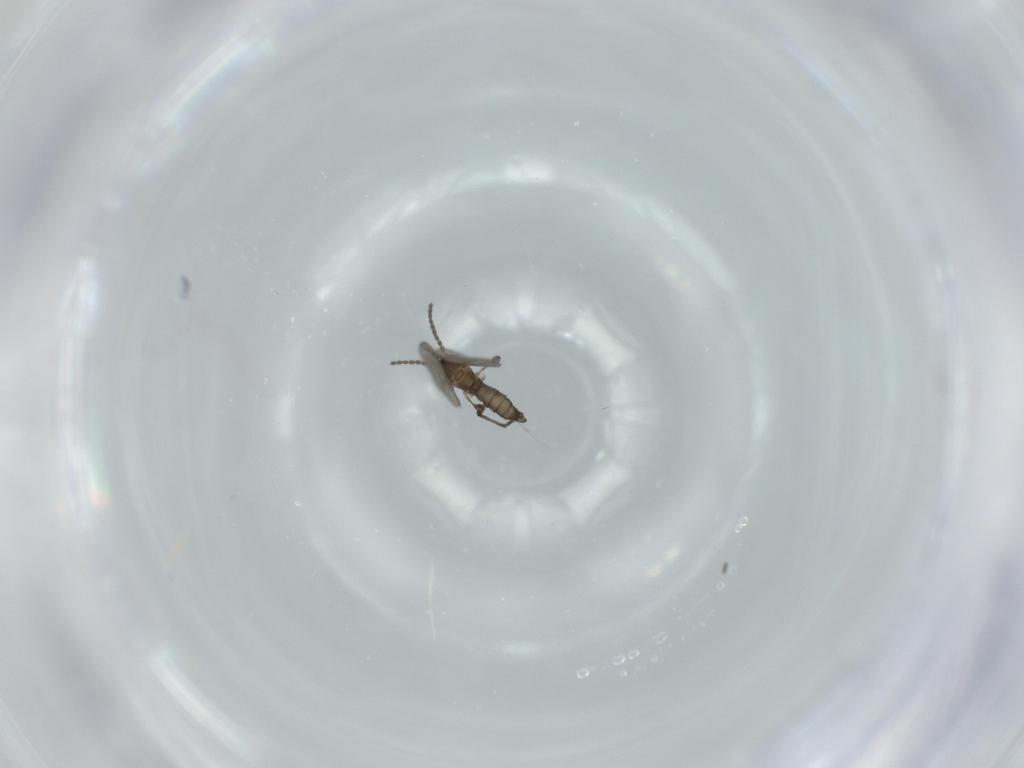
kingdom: Animalia
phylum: Arthropoda
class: Insecta
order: Diptera
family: Sciaridae
